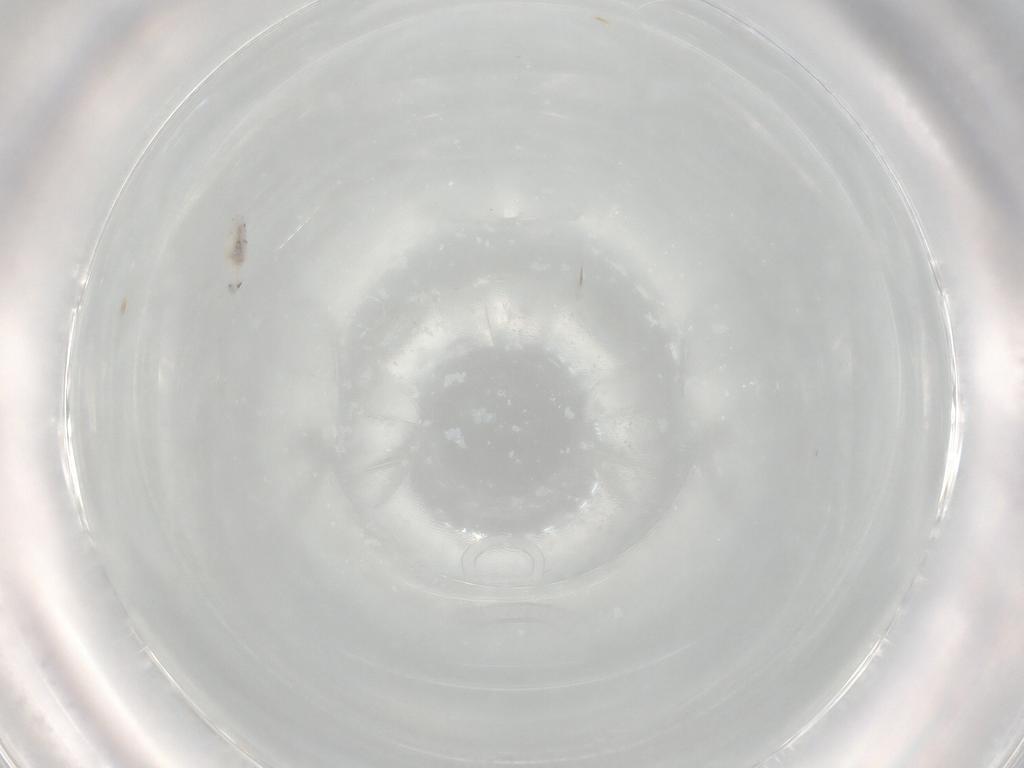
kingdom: Animalia
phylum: Arthropoda
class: Collembola
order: Entomobryomorpha
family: Entomobryidae
